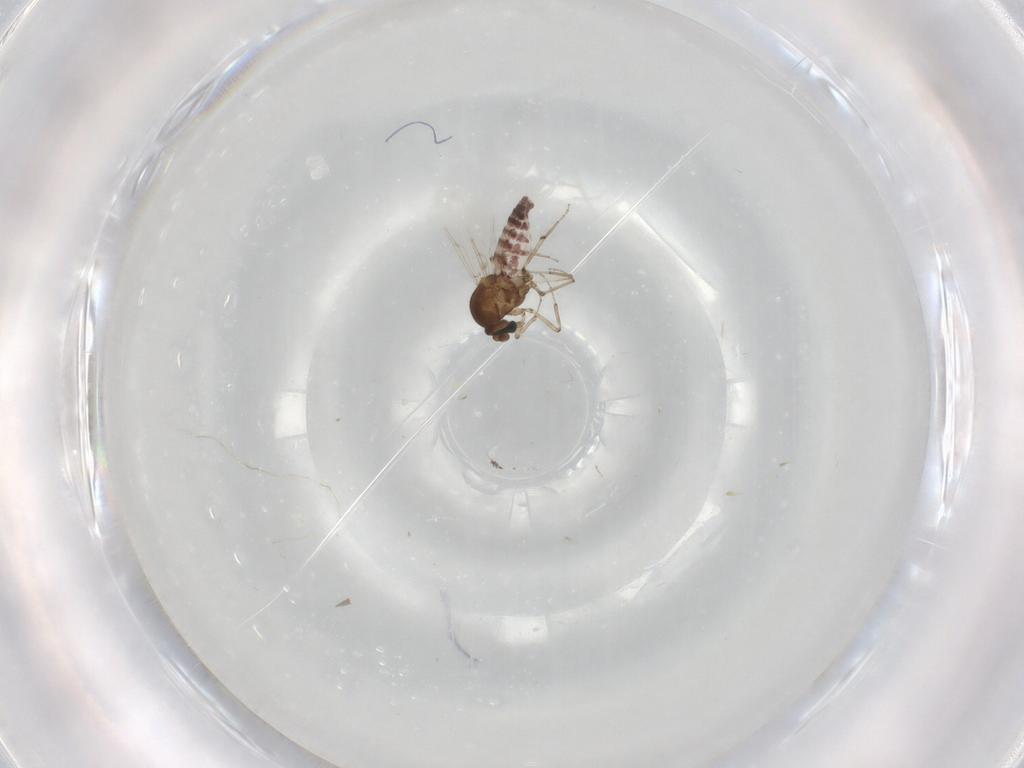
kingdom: Animalia
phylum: Arthropoda
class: Insecta
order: Diptera
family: Ceratopogonidae
